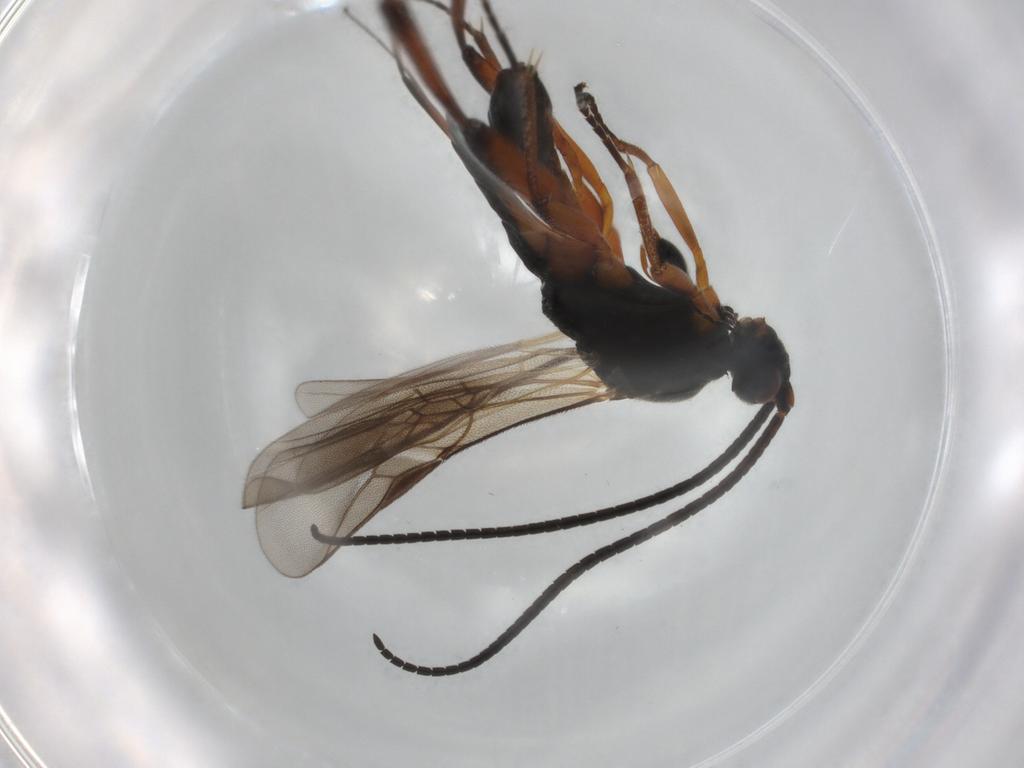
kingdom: Animalia
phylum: Arthropoda
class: Insecta
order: Hymenoptera
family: Braconidae
